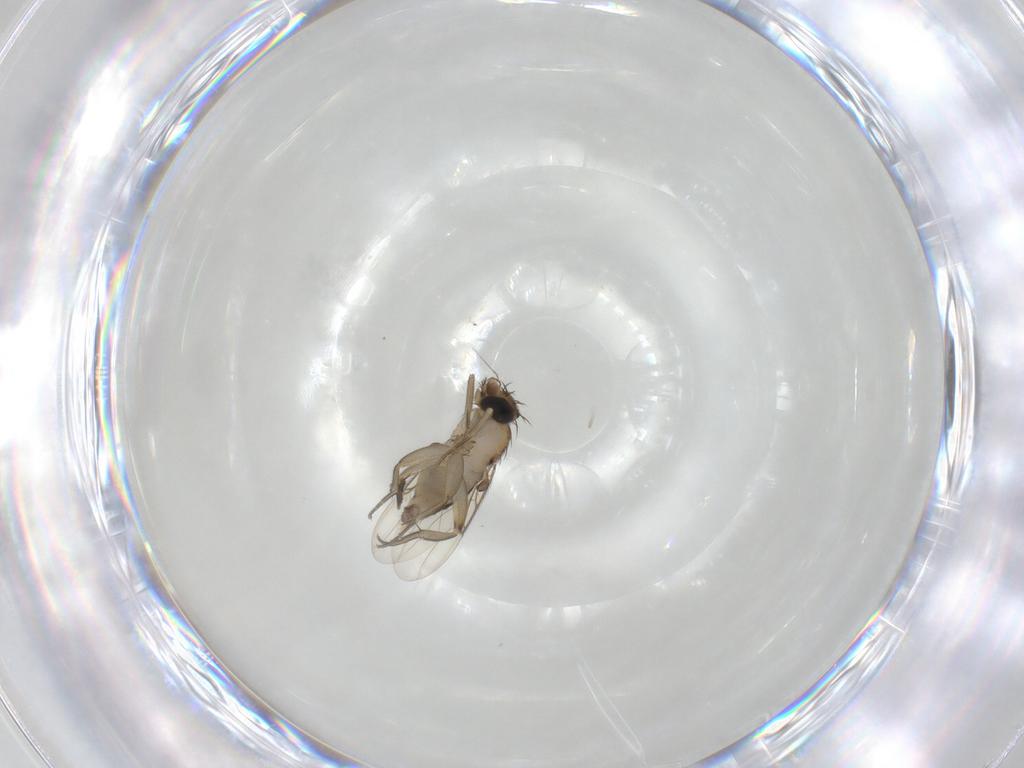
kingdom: Animalia
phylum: Arthropoda
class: Insecta
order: Diptera
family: Phoridae
